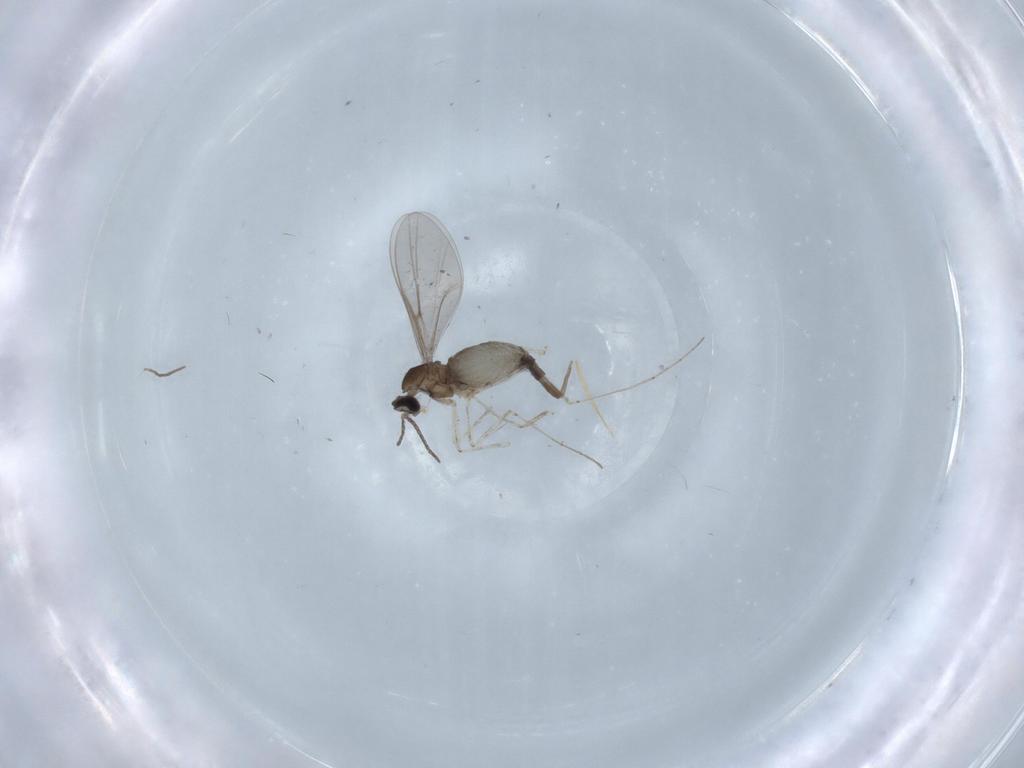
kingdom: Animalia
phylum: Arthropoda
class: Insecta
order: Diptera
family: Cecidomyiidae
